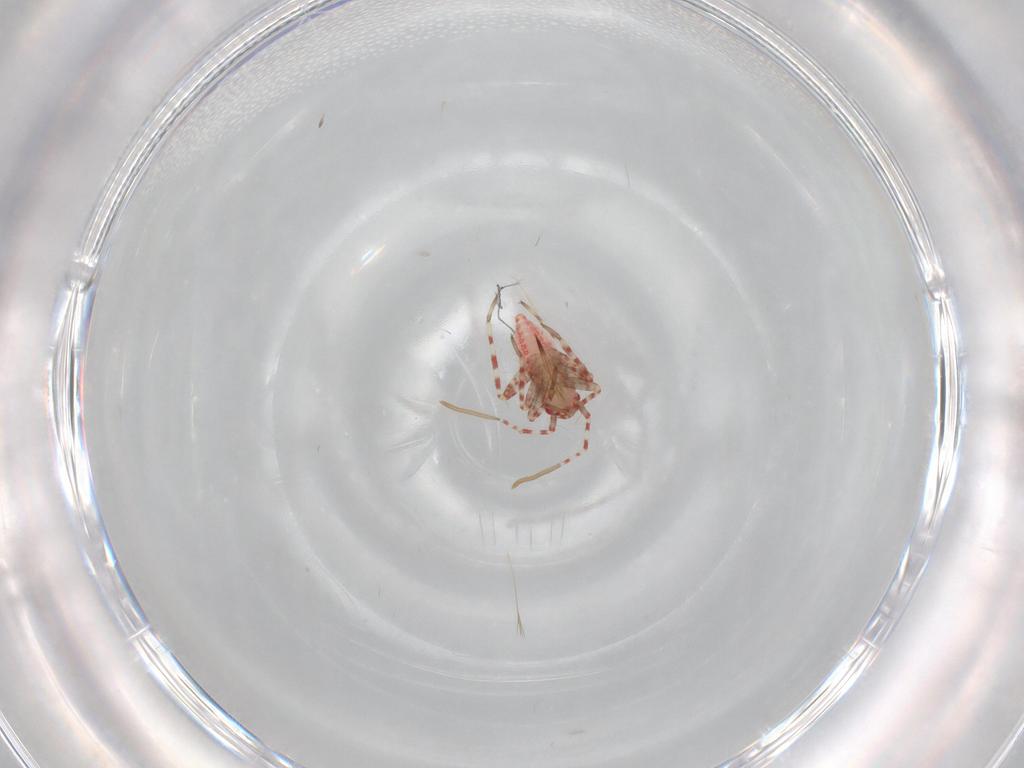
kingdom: Animalia
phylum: Arthropoda
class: Insecta
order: Hemiptera
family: Miridae
